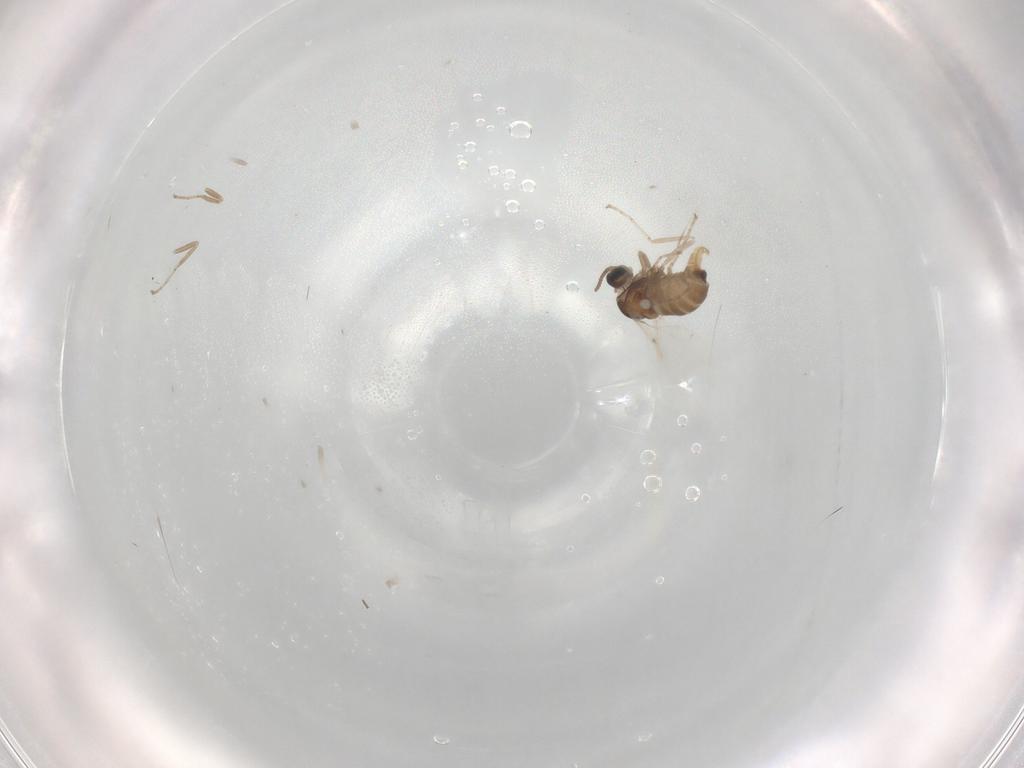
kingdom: Animalia
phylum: Arthropoda
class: Insecta
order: Diptera
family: Cecidomyiidae
